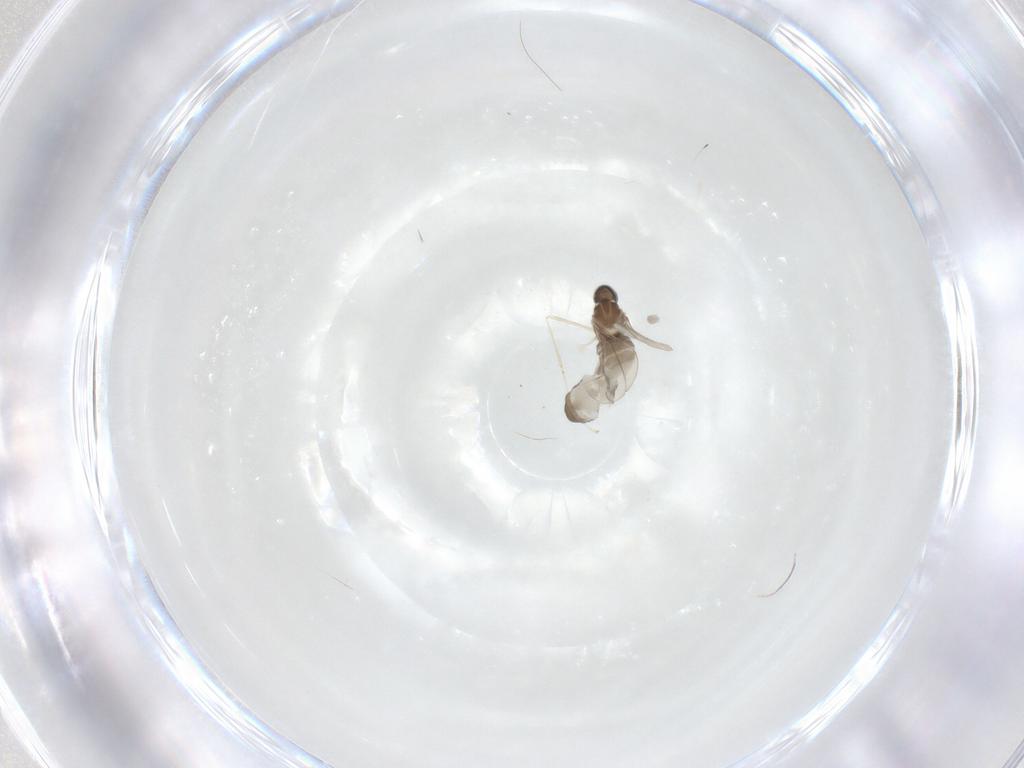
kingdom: Animalia
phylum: Arthropoda
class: Insecta
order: Diptera
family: Cecidomyiidae
